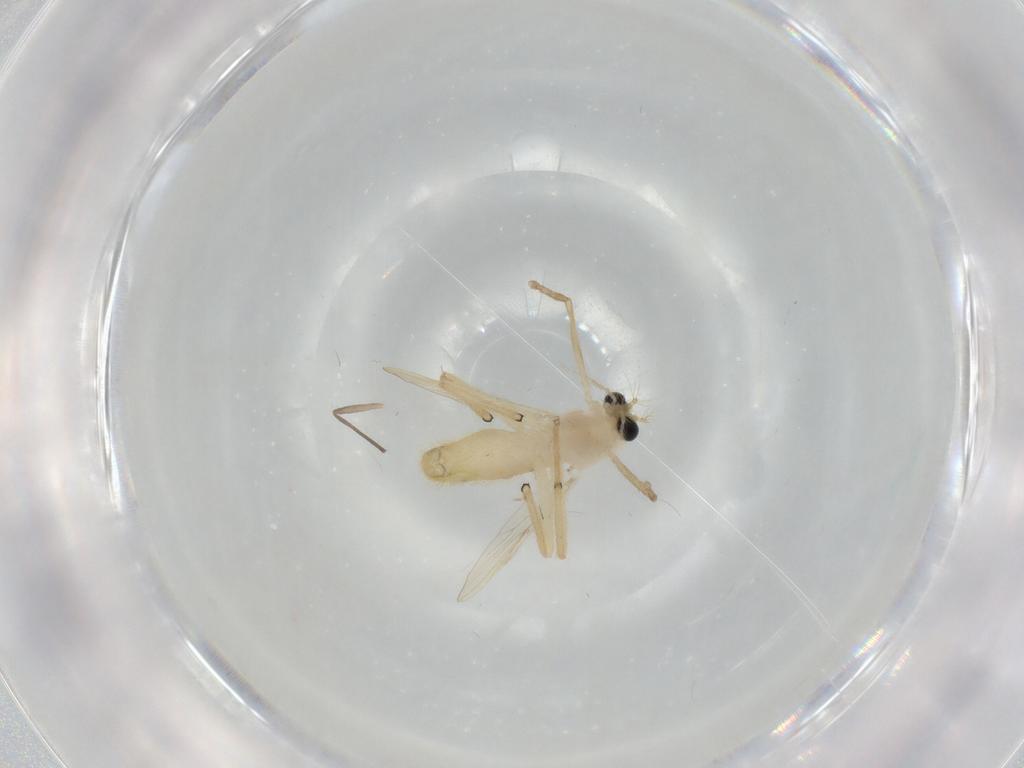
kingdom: Animalia
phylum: Arthropoda
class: Insecta
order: Diptera
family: Chironomidae
